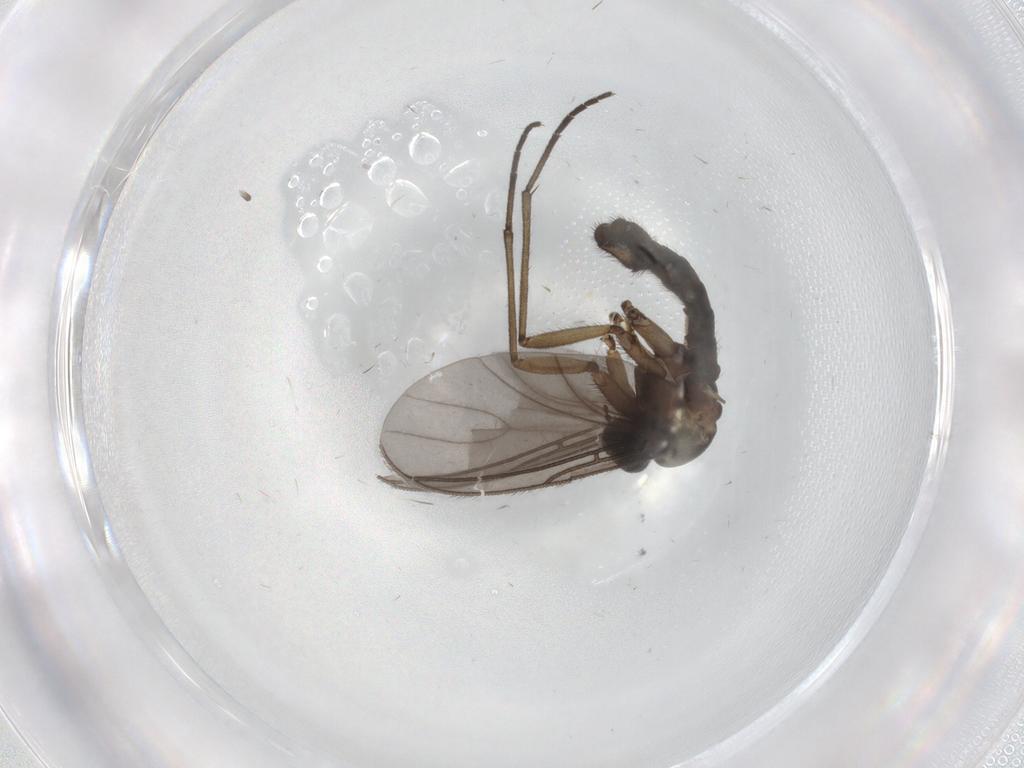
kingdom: Animalia
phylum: Arthropoda
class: Insecta
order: Diptera
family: Sciaridae
